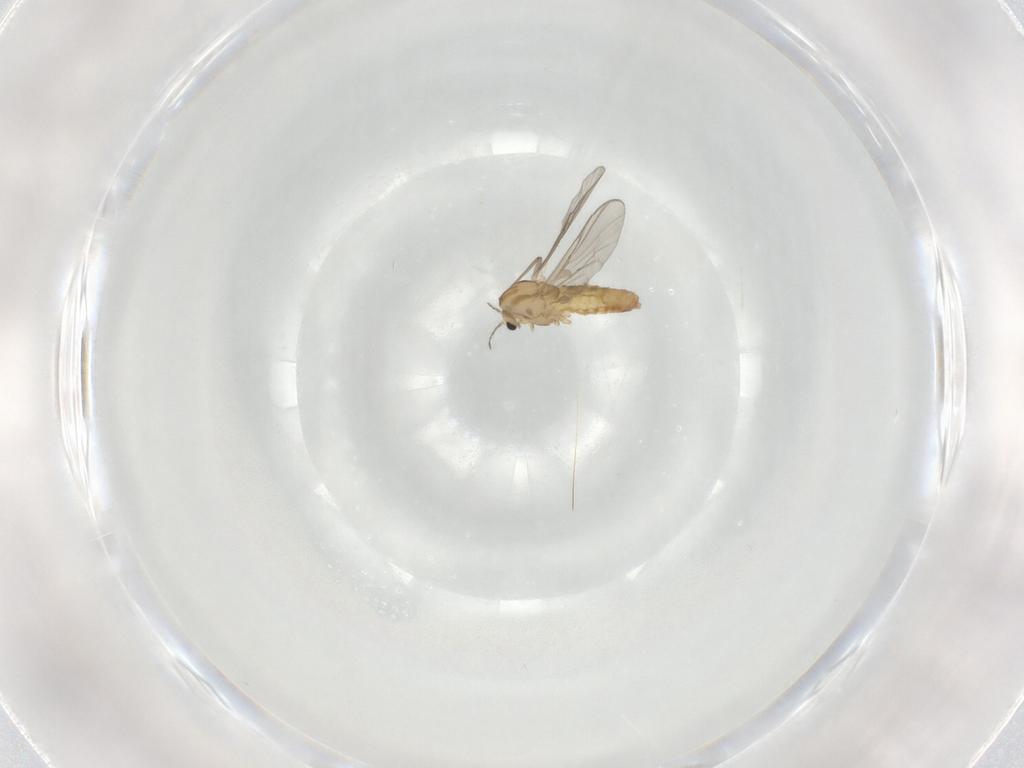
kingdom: Animalia
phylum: Arthropoda
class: Insecta
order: Diptera
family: Chironomidae
